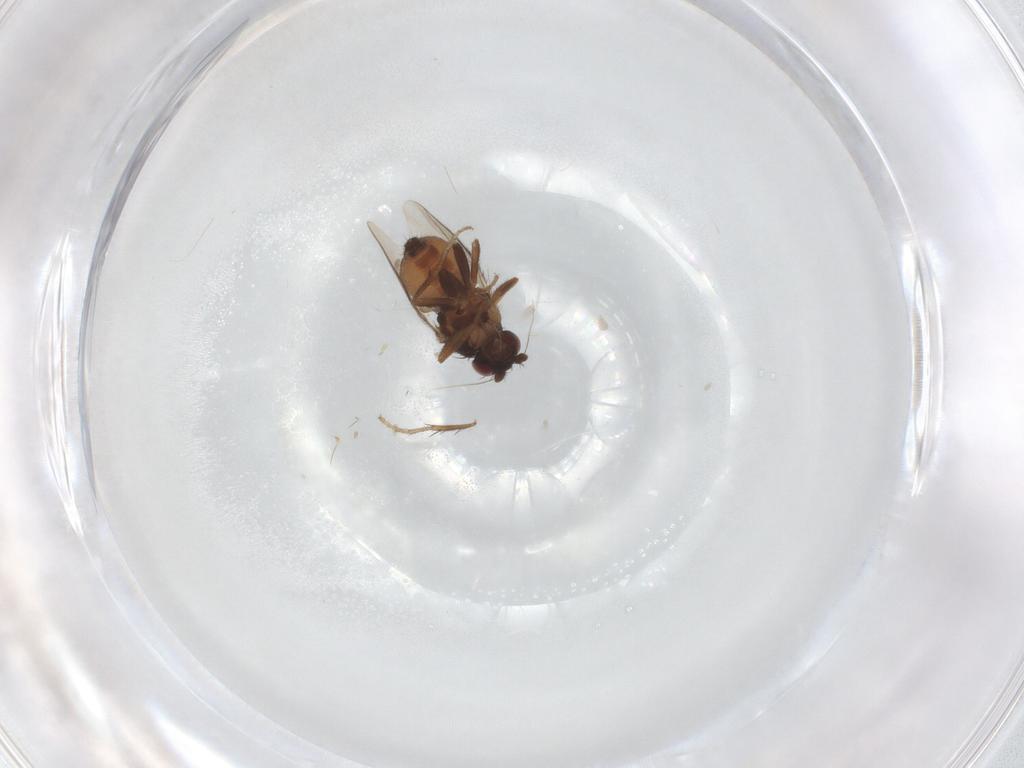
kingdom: Animalia
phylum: Arthropoda
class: Insecta
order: Diptera
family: Sphaeroceridae
